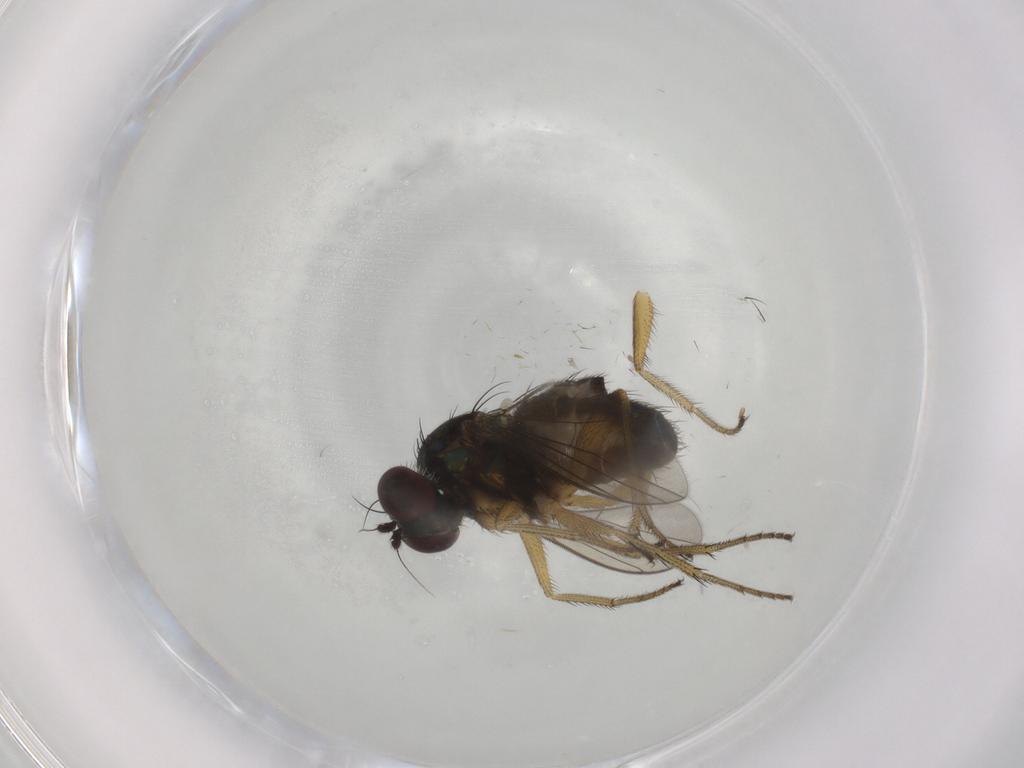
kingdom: Animalia
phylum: Arthropoda
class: Insecta
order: Diptera
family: Dolichopodidae
